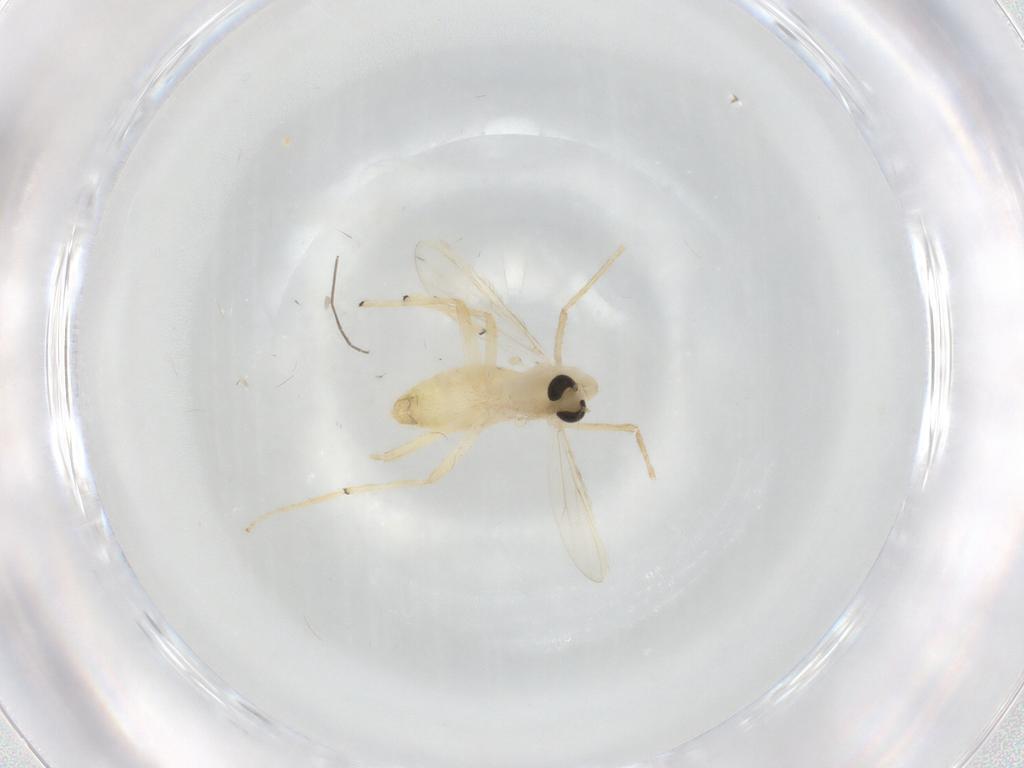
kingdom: Animalia
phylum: Arthropoda
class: Insecta
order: Diptera
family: Chironomidae
